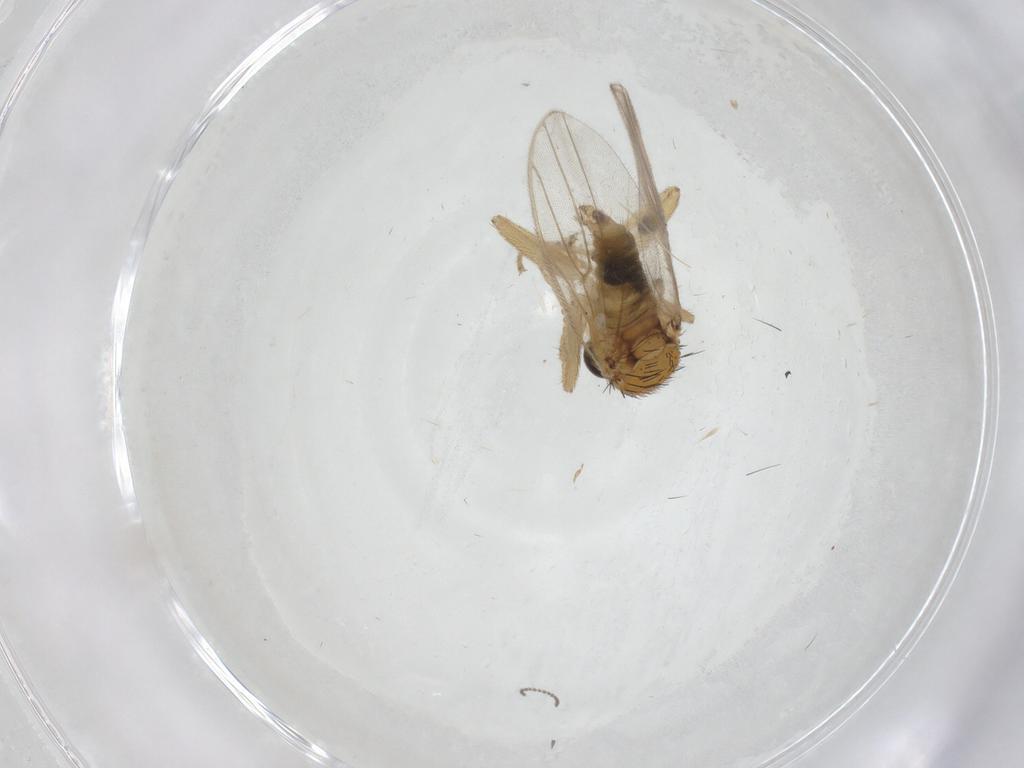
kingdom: Animalia
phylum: Arthropoda
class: Insecta
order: Diptera
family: Hybotidae
